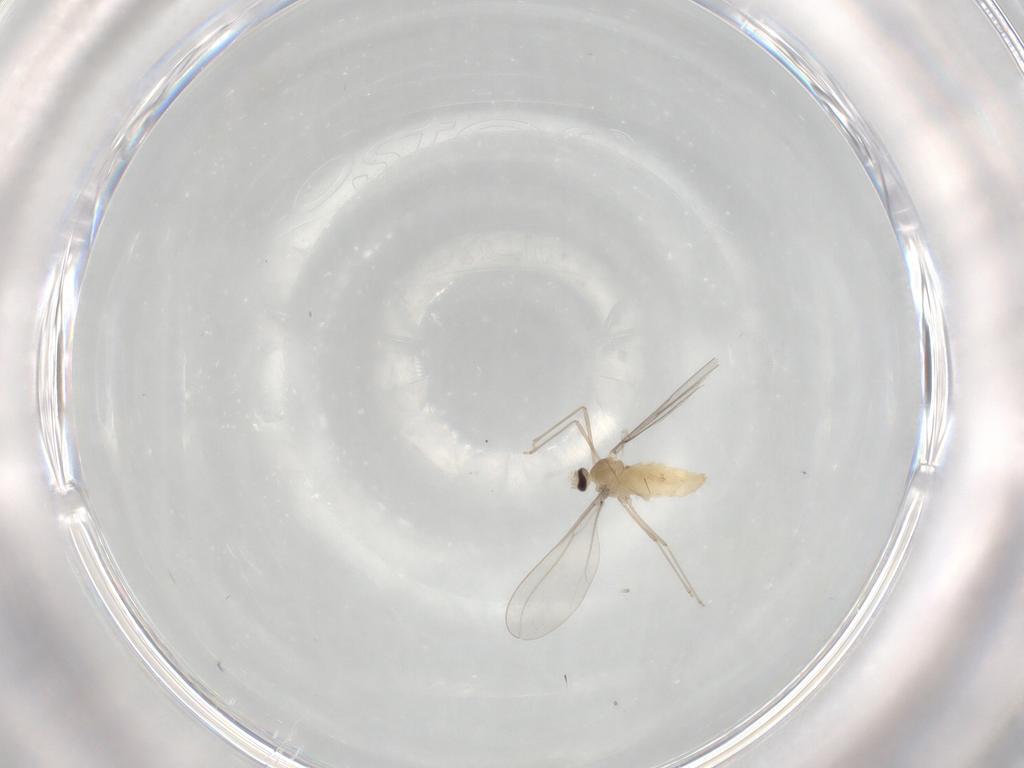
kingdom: Animalia
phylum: Arthropoda
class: Insecta
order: Diptera
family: Cecidomyiidae
